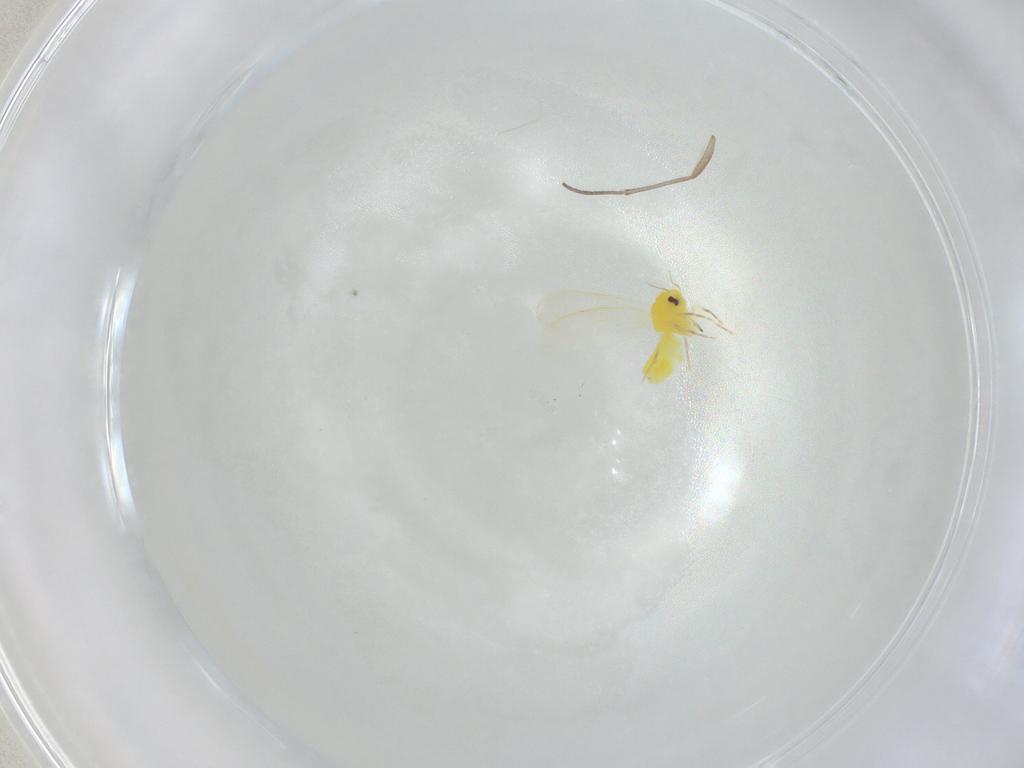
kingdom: Animalia
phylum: Arthropoda
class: Insecta
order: Hemiptera
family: Aleyrodidae
